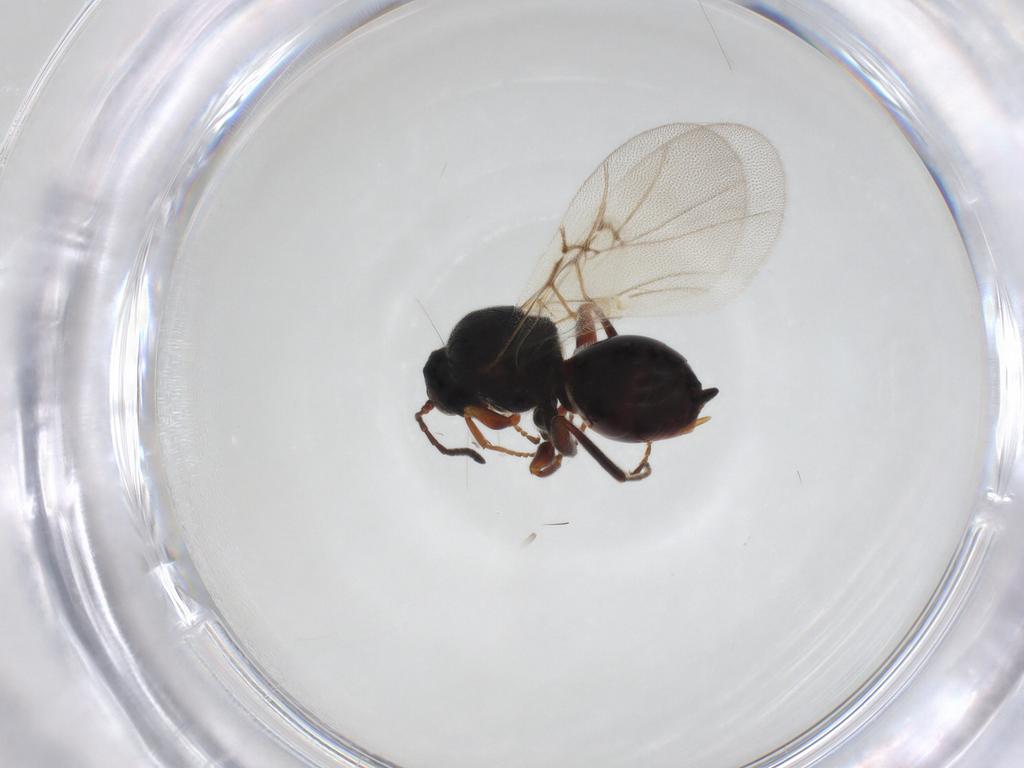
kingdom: Animalia
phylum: Arthropoda
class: Insecta
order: Hymenoptera
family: Cynipidae
